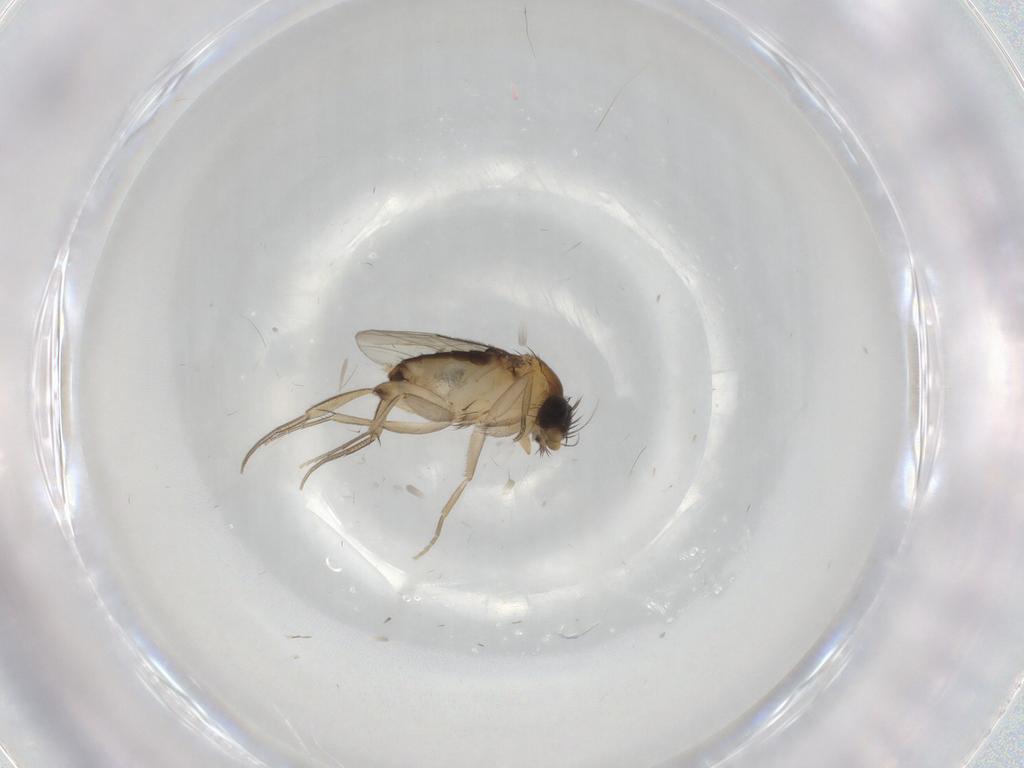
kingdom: Animalia
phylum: Arthropoda
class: Insecta
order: Diptera
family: Phoridae
